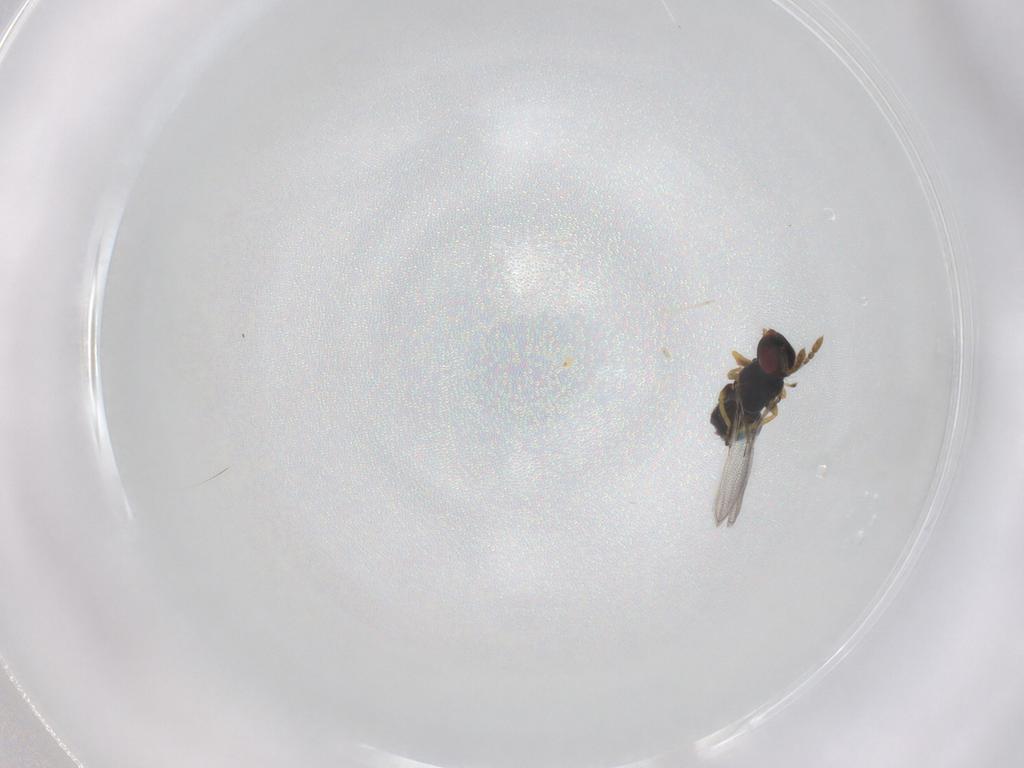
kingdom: Animalia
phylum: Arthropoda
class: Insecta
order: Hymenoptera
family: Eulophidae
